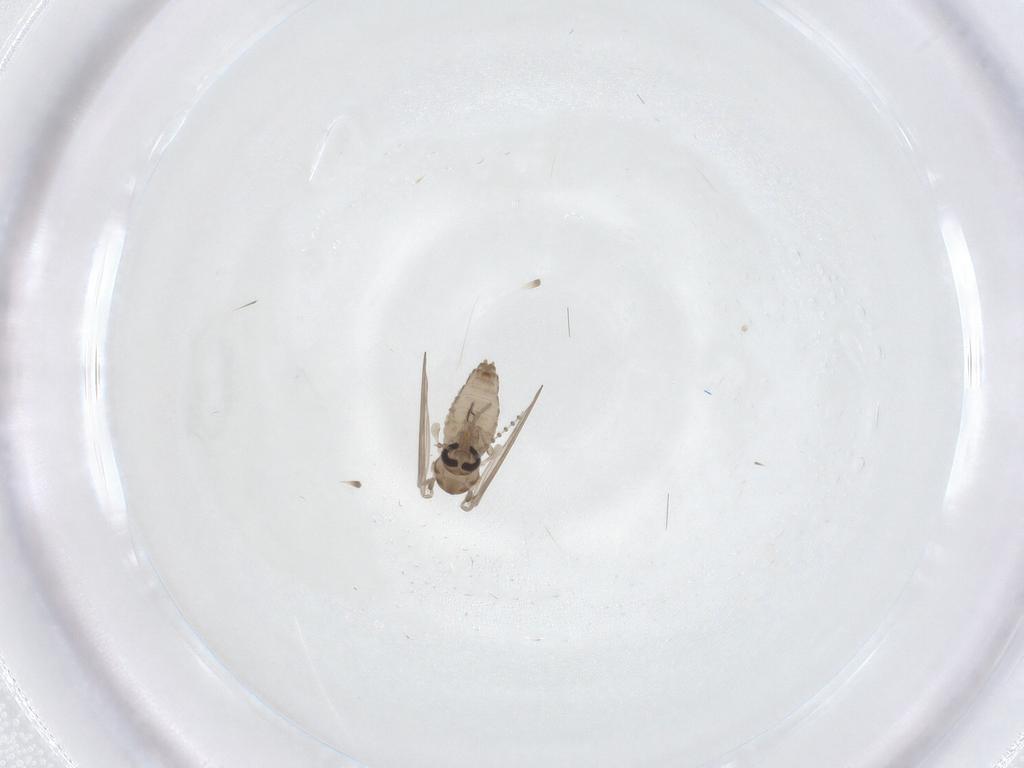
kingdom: Animalia
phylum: Arthropoda
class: Insecta
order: Diptera
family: Psychodidae
